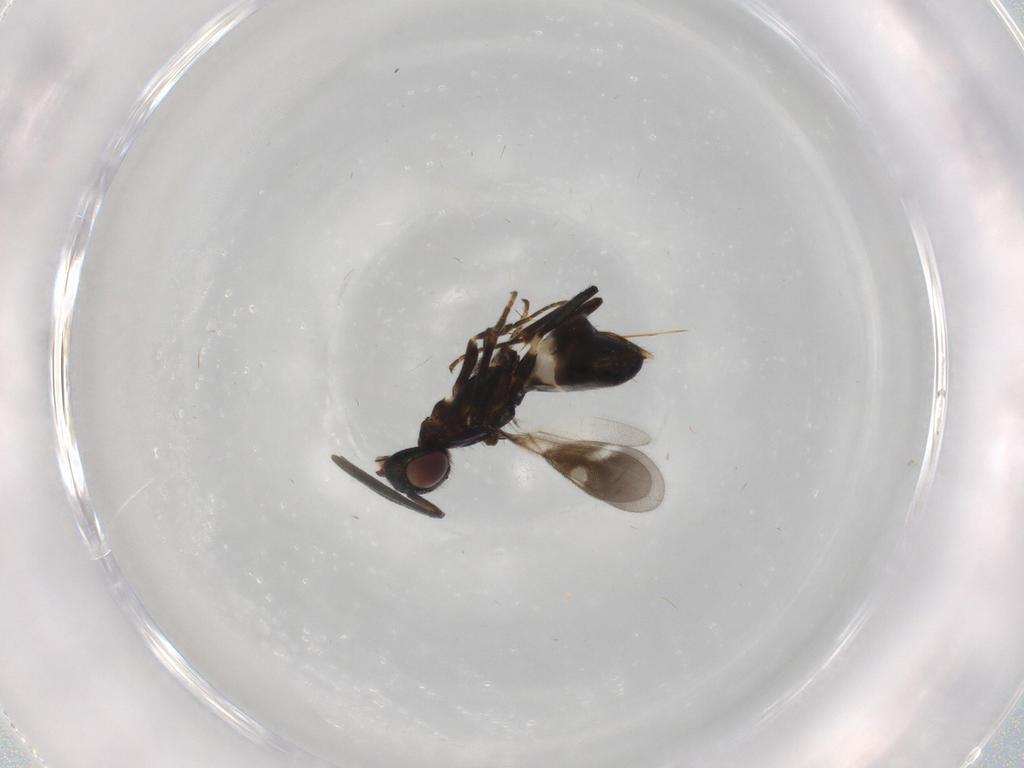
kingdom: Animalia
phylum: Arthropoda
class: Insecta
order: Hymenoptera
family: Eupelmidae
